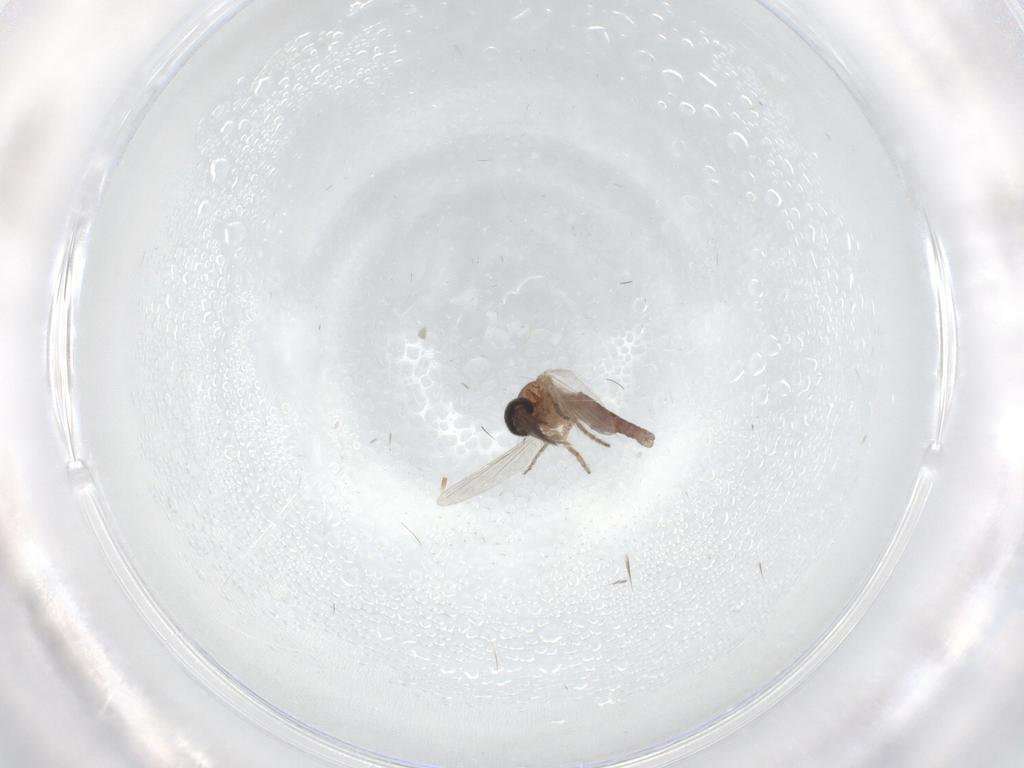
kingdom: Animalia
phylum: Arthropoda
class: Insecta
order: Diptera
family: Ceratopogonidae
